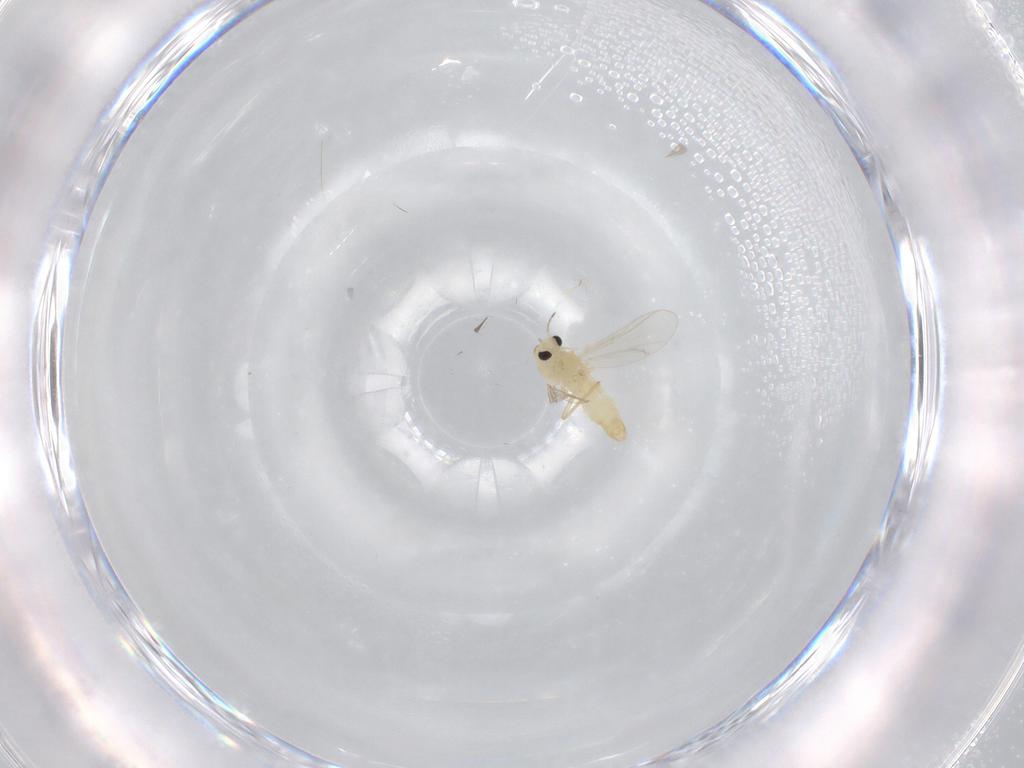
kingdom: Animalia
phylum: Arthropoda
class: Insecta
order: Diptera
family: Chironomidae
